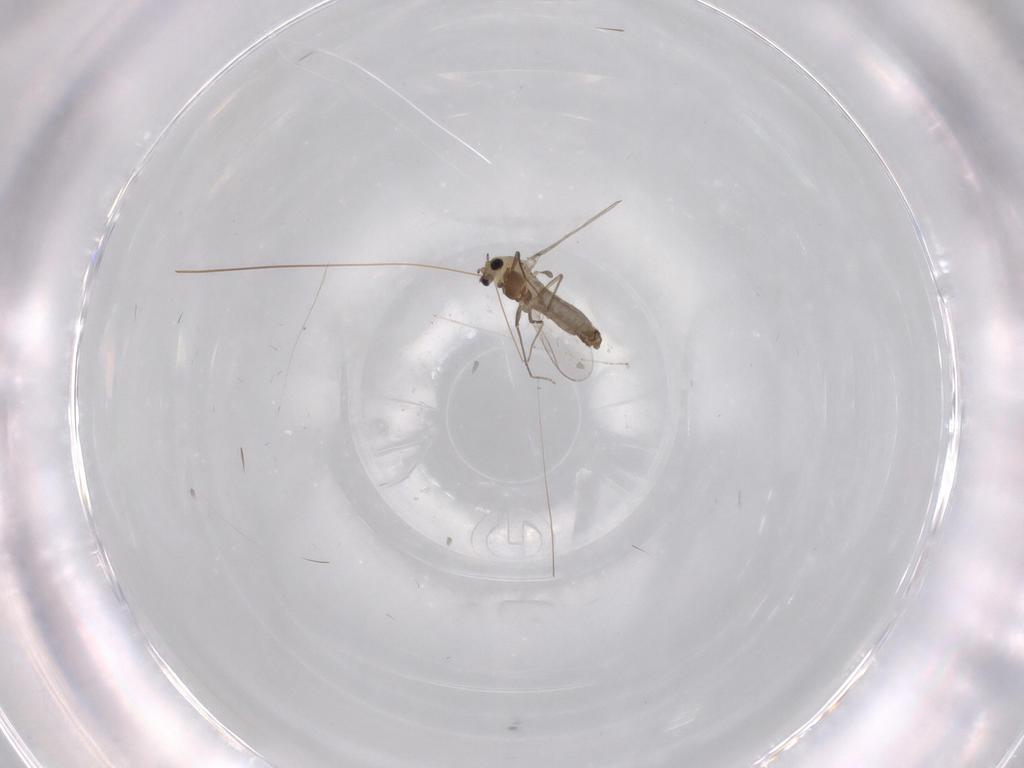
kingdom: Animalia
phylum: Arthropoda
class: Insecta
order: Diptera
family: Chironomidae
